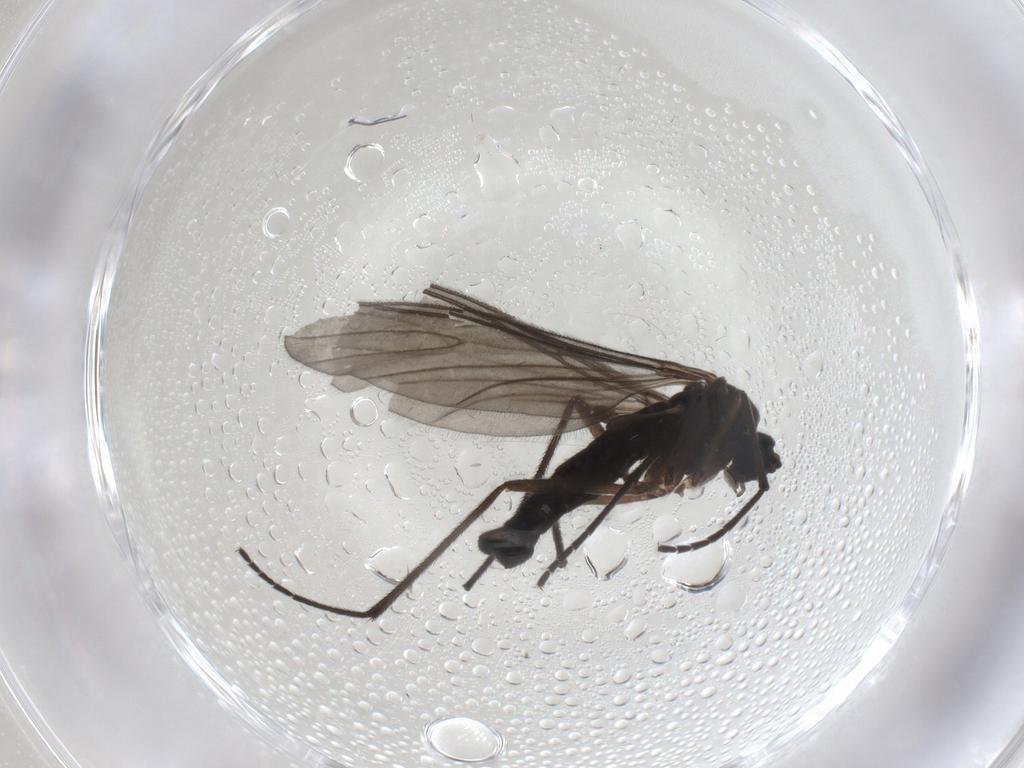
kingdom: Animalia
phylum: Arthropoda
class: Insecta
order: Diptera
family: Sciaridae
